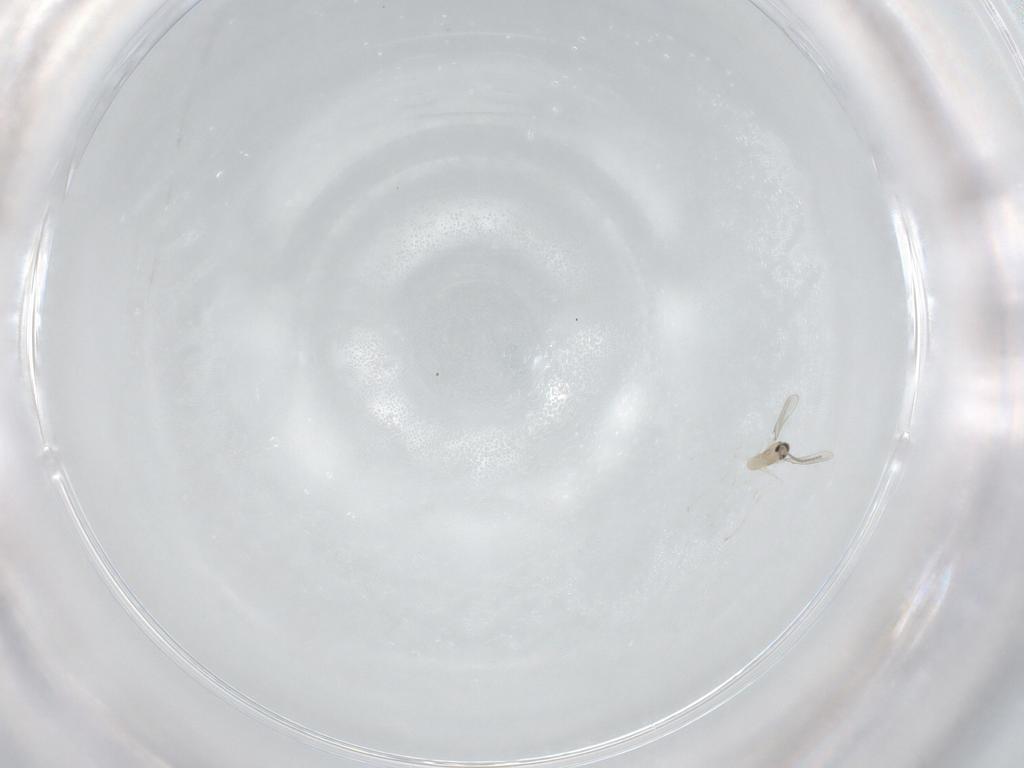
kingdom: Animalia
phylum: Arthropoda
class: Insecta
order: Diptera
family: Cecidomyiidae
